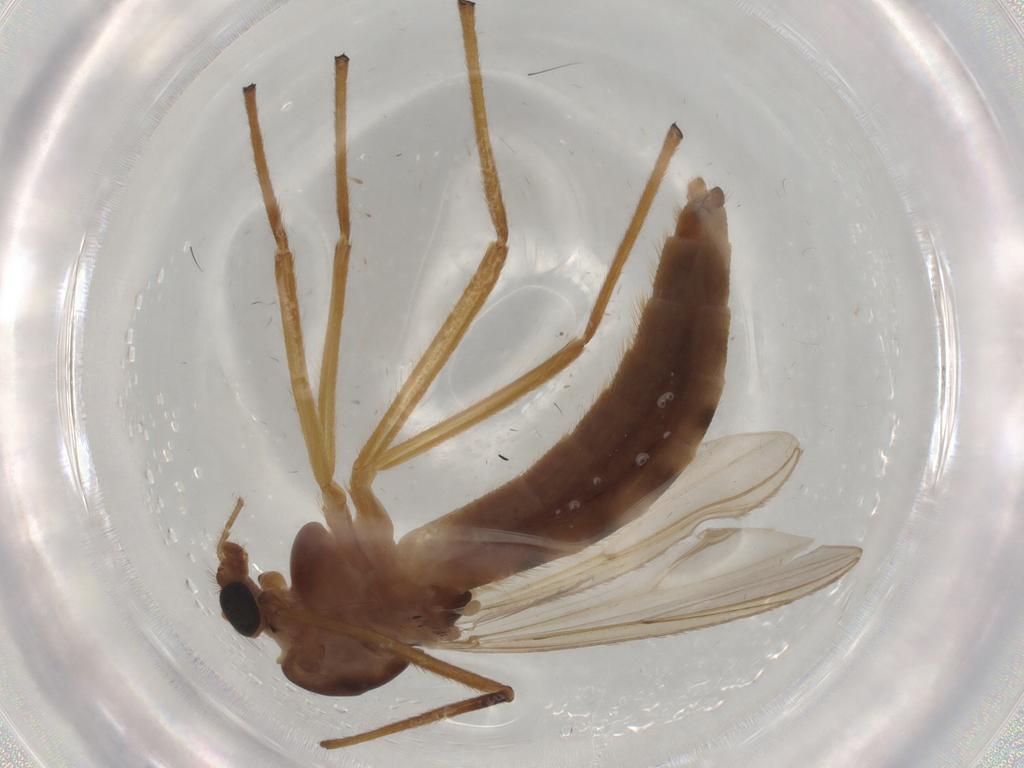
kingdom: Animalia
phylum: Arthropoda
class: Insecta
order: Diptera
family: Chironomidae
